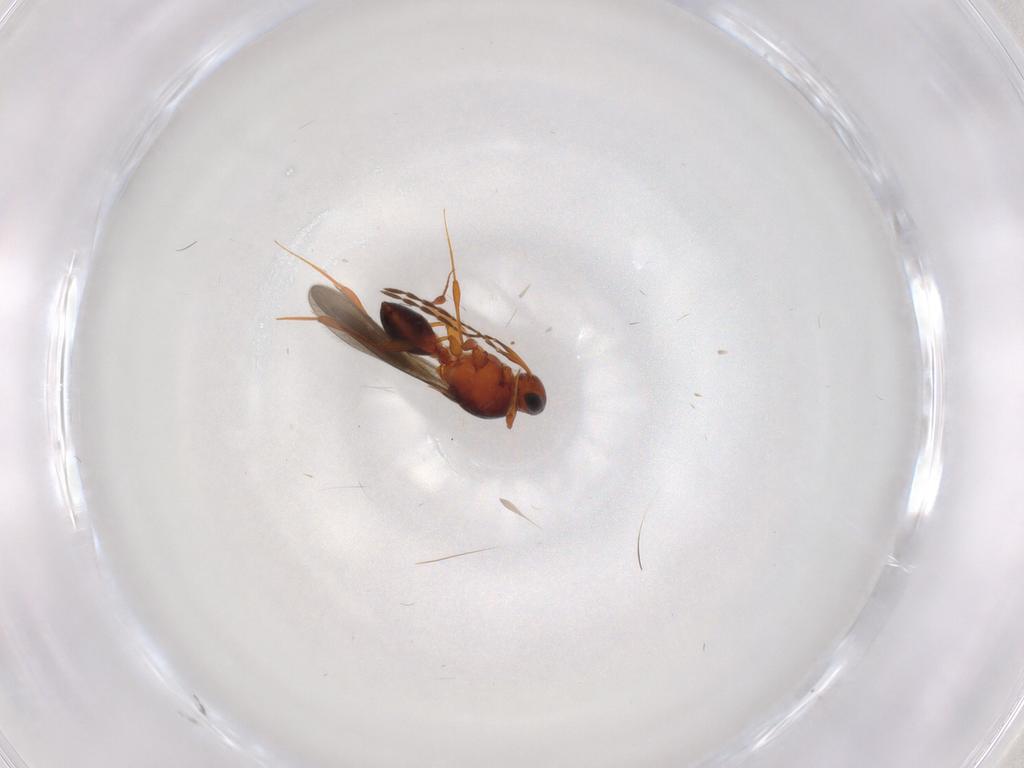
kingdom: Animalia
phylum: Arthropoda
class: Insecta
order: Hymenoptera
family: Platygastridae
